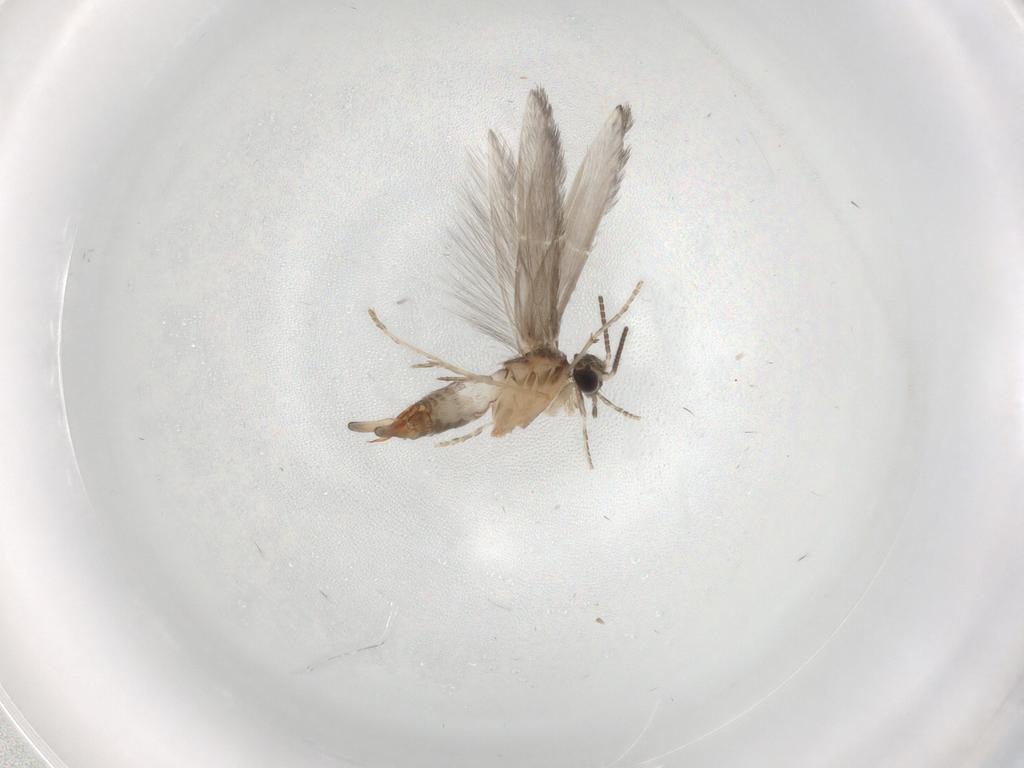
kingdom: Animalia
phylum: Arthropoda
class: Insecta
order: Trichoptera
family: Hydroptilidae
